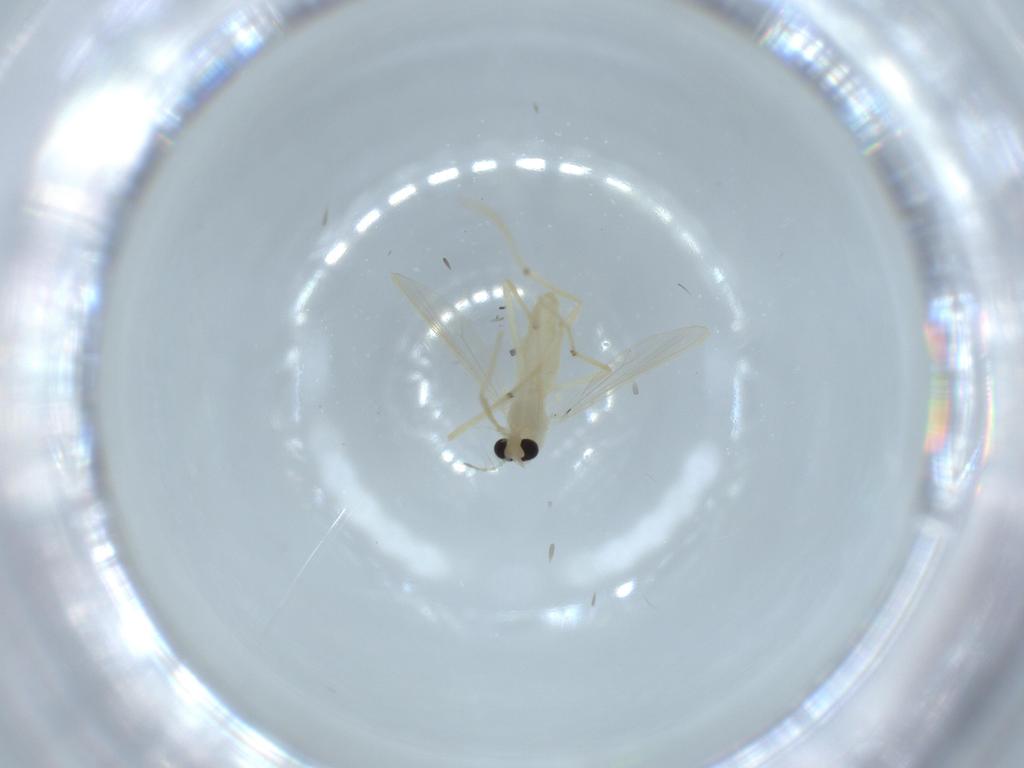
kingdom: Animalia
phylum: Arthropoda
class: Insecta
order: Diptera
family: Chironomidae
